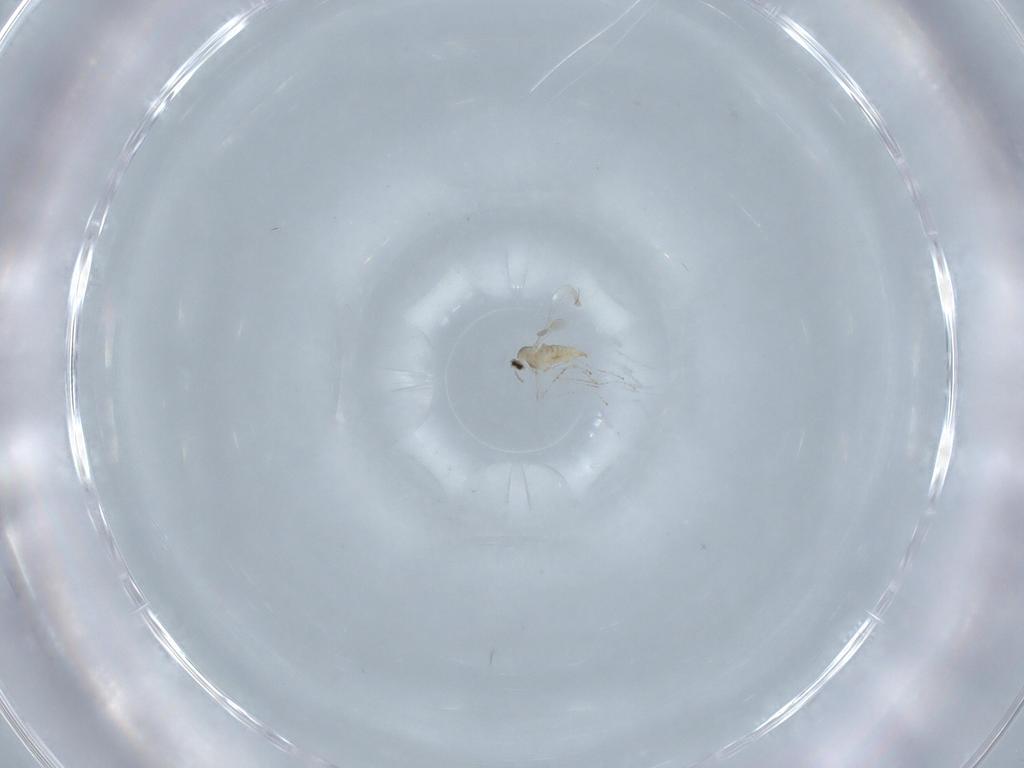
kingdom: Animalia
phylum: Arthropoda
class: Insecta
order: Diptera
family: Cecidomyiidae
